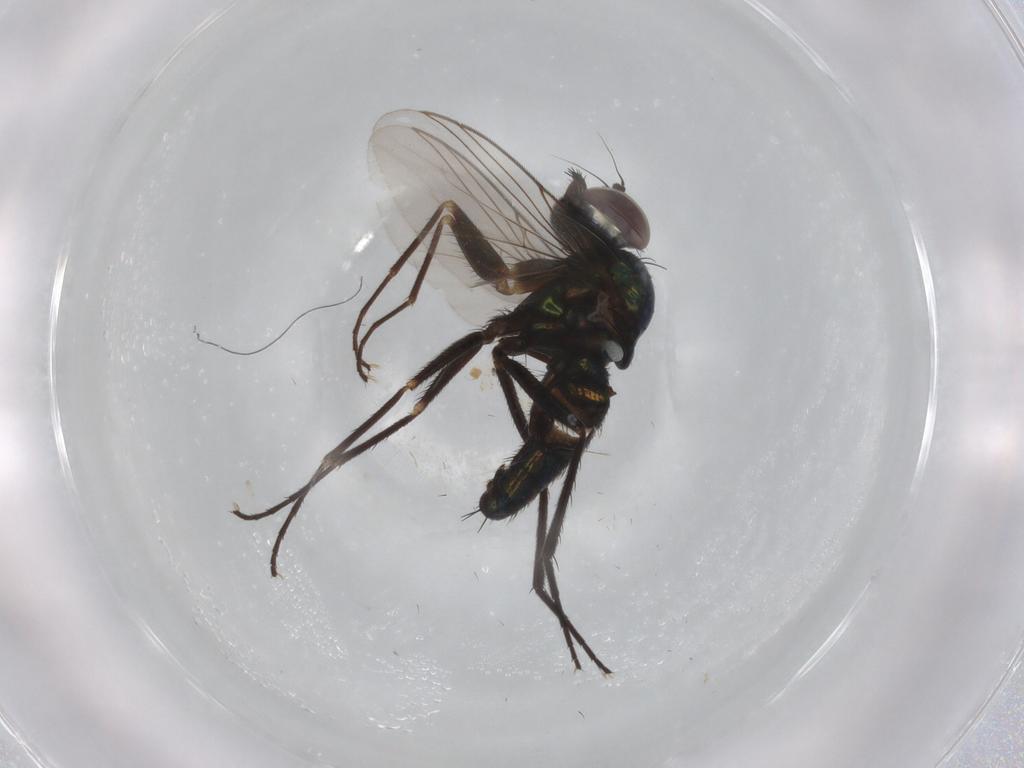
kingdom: Animalia
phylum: Arthropoda
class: Insecta
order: Diptera
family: Dolichopodidae
